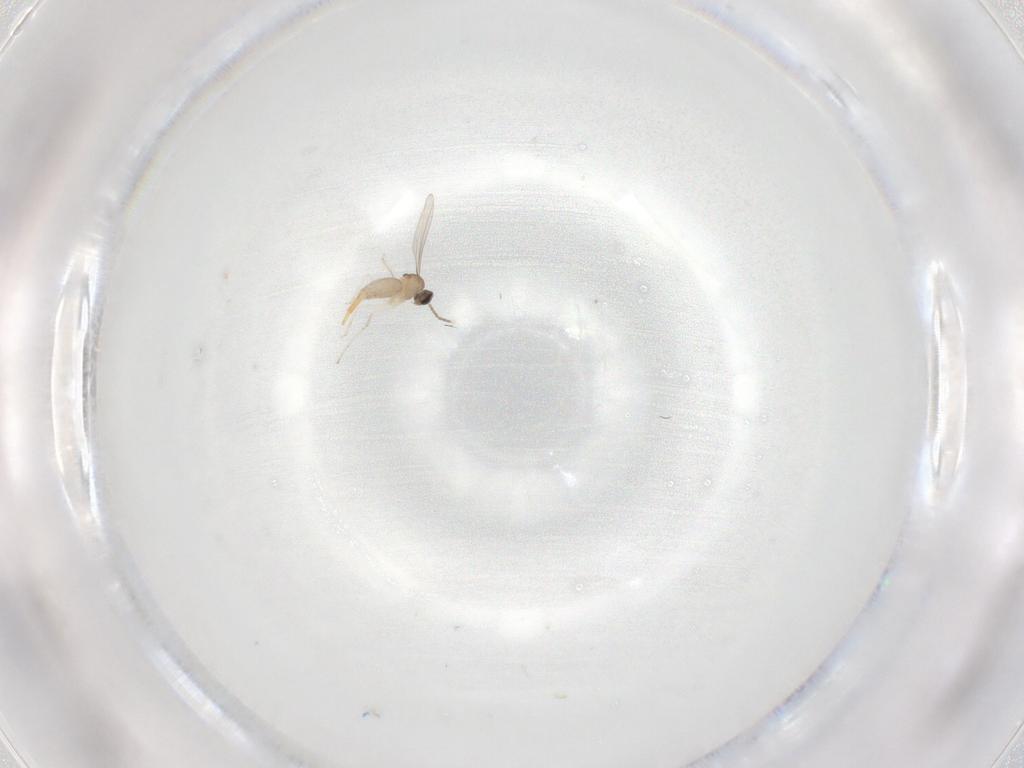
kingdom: Animalia
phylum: Arthropoda
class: Insecta
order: Diptera
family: Cecidomyiidae
